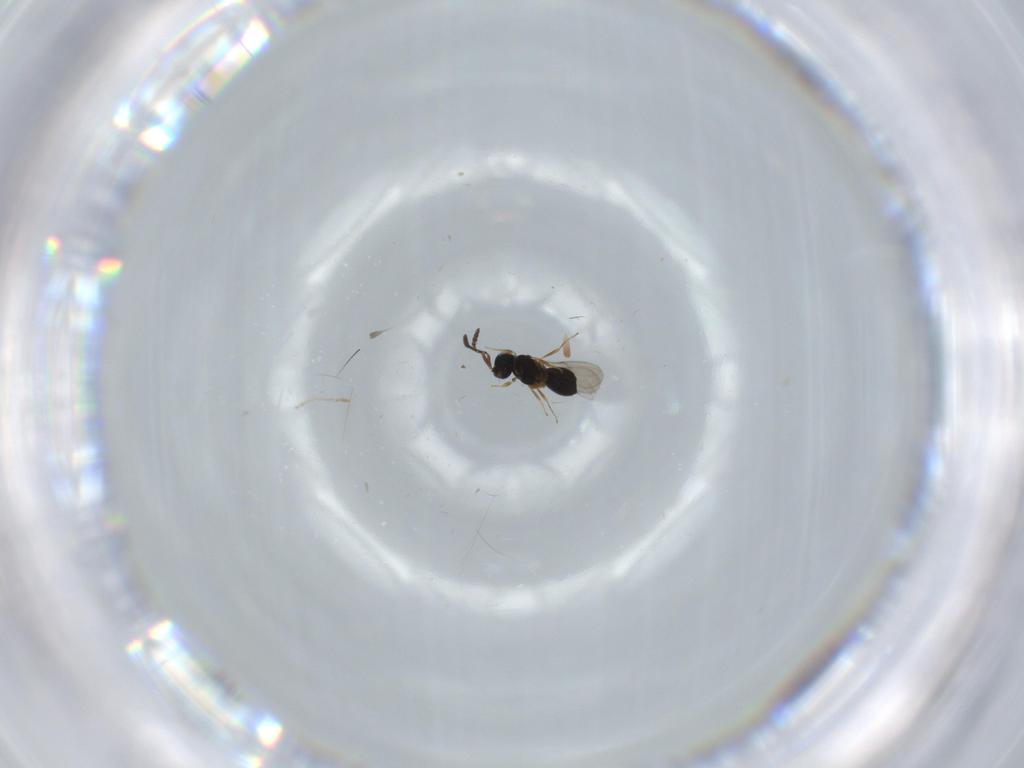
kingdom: Animalia
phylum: Arthropoda
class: Insecta
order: Hymenoptera
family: Scelionidae
